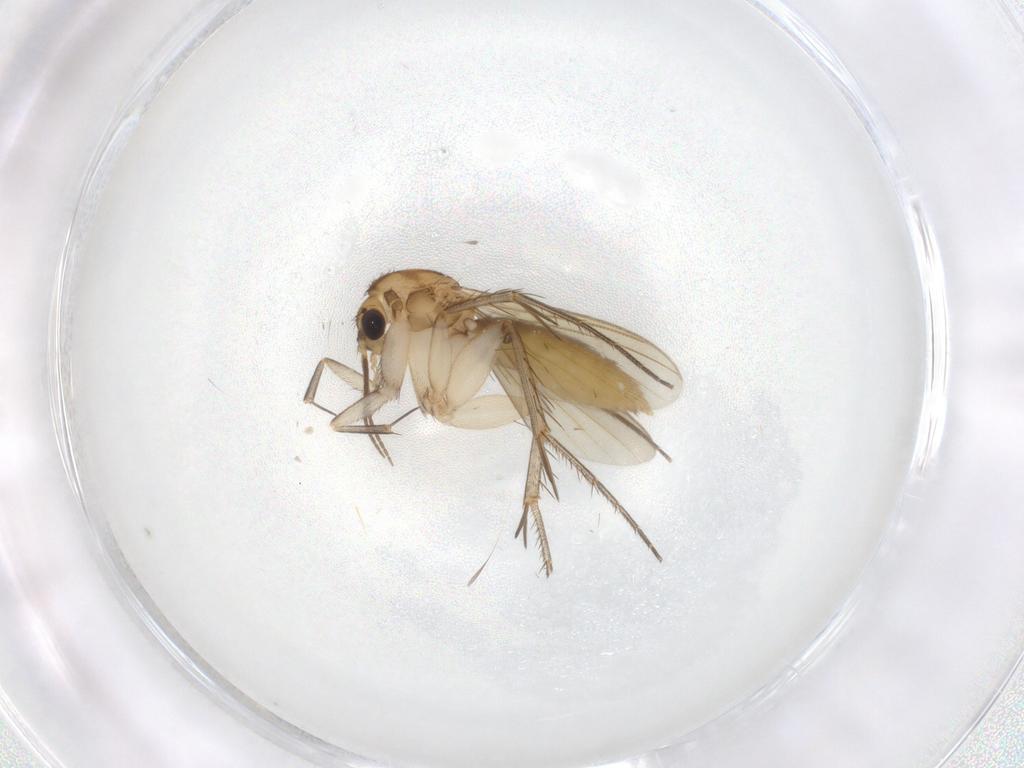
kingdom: Animalia
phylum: Arthropoda
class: Insecta
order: Diptera
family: Mycetophilidae
